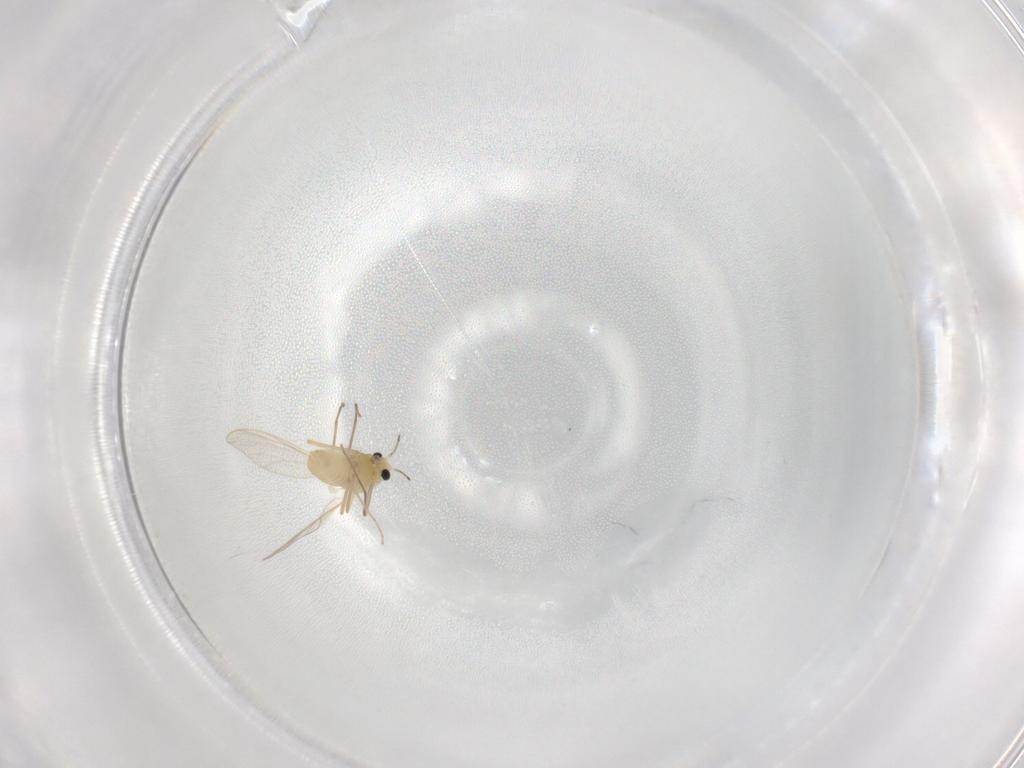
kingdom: Animalia
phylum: Arthropoda
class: Insecta
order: Diptera
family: Chironomidae
